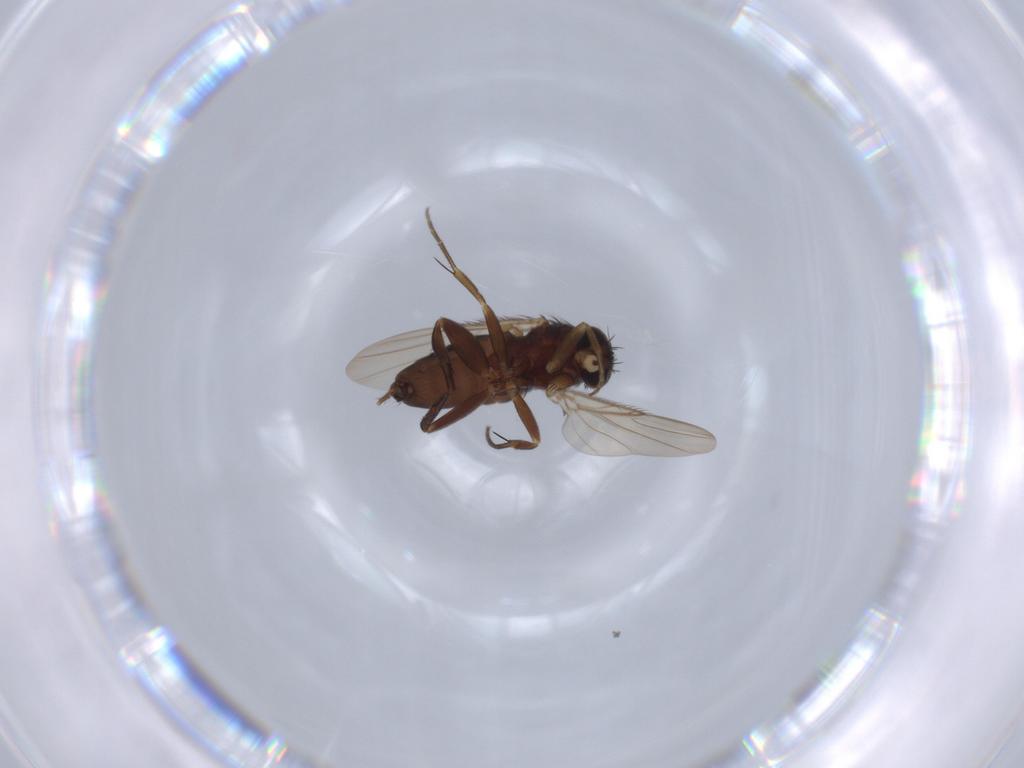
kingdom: Animalia
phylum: Arthropoda
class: Insecta
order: Diptera
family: Phoridae
